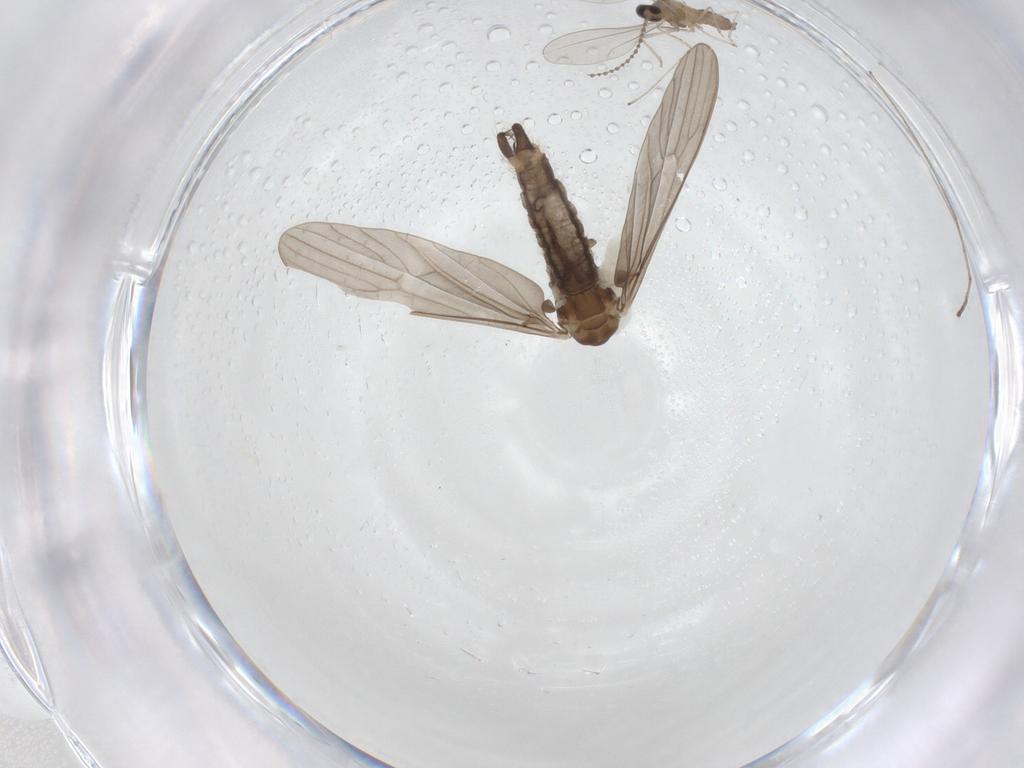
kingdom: Animalia
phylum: Arthropoda
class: Insecta
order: Diptera
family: Limoniidae
